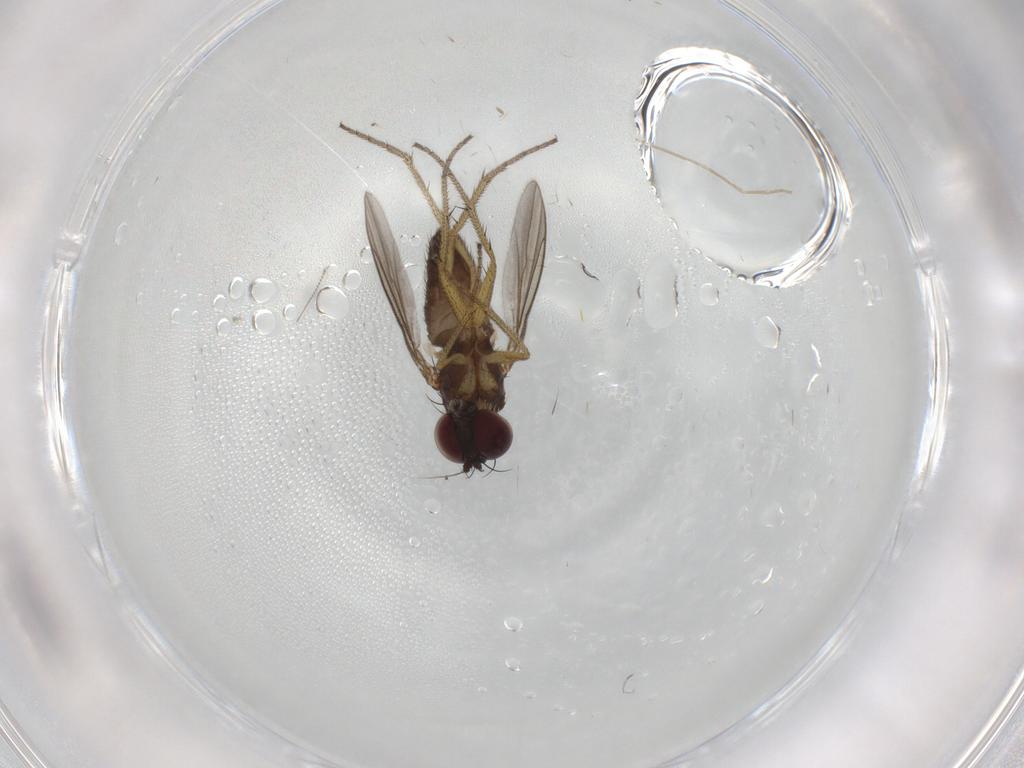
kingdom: Animalia
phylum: Arthropoda
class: Insecta
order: Diptera
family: Chironomidae
